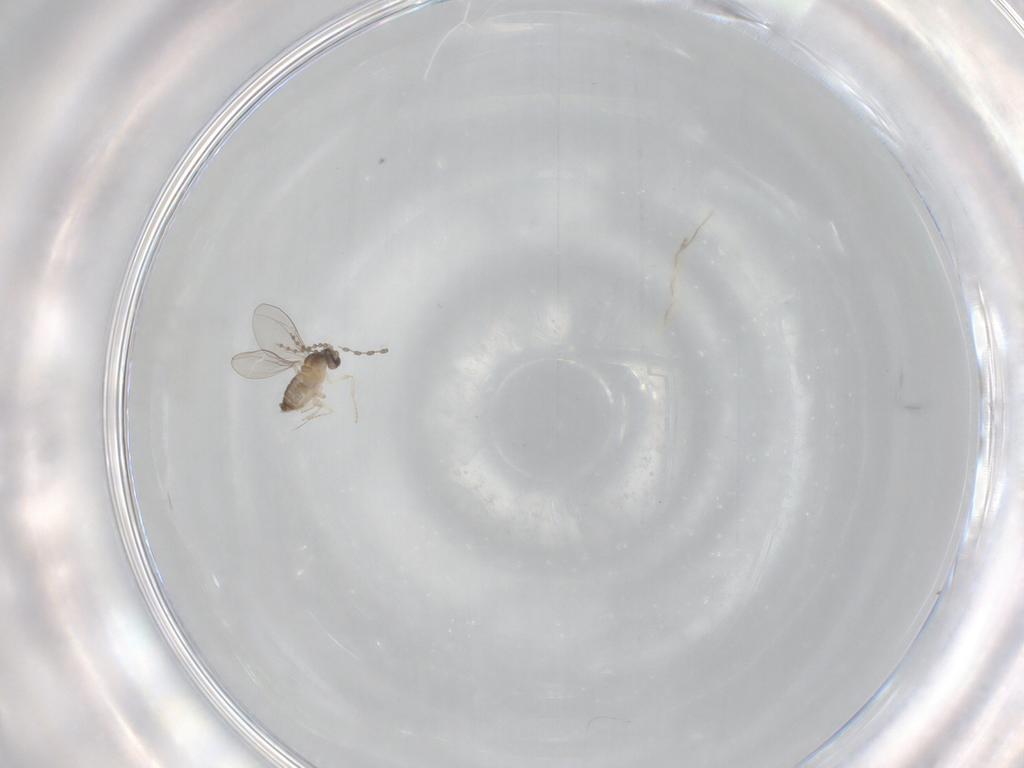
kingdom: Animalia
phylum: Arthropoda
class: Insecta
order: Diptera
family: Cecidomyiidae
